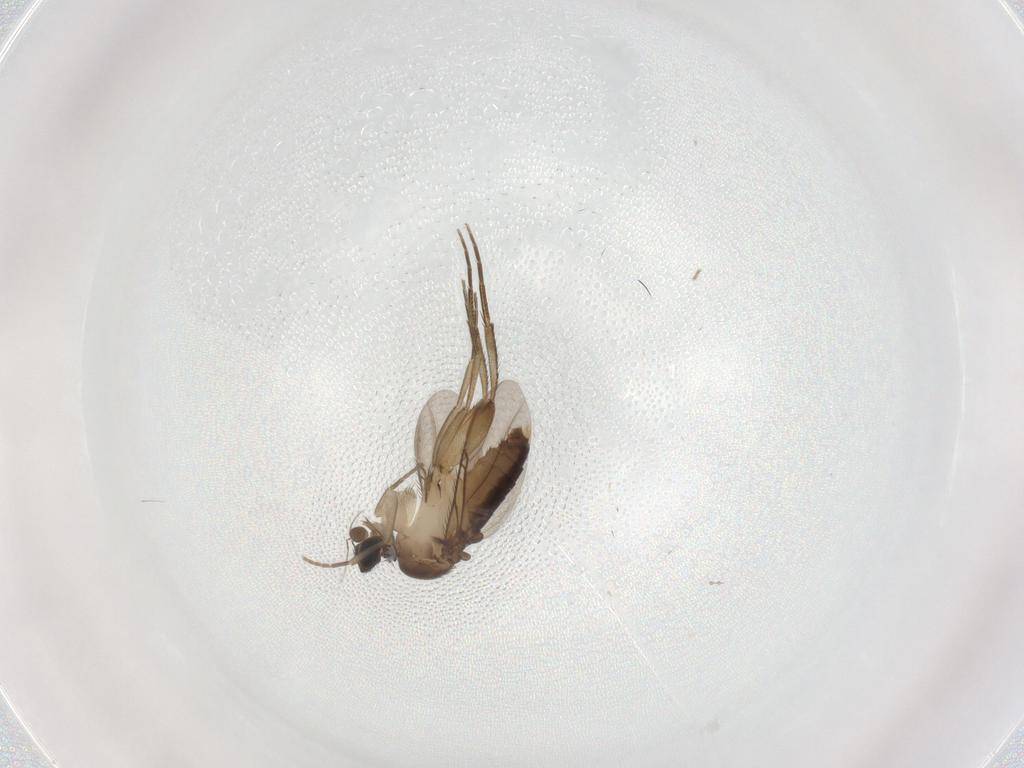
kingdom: Animalia
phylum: Arthropoda
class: Insecta
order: Diptera
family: Phoridae
